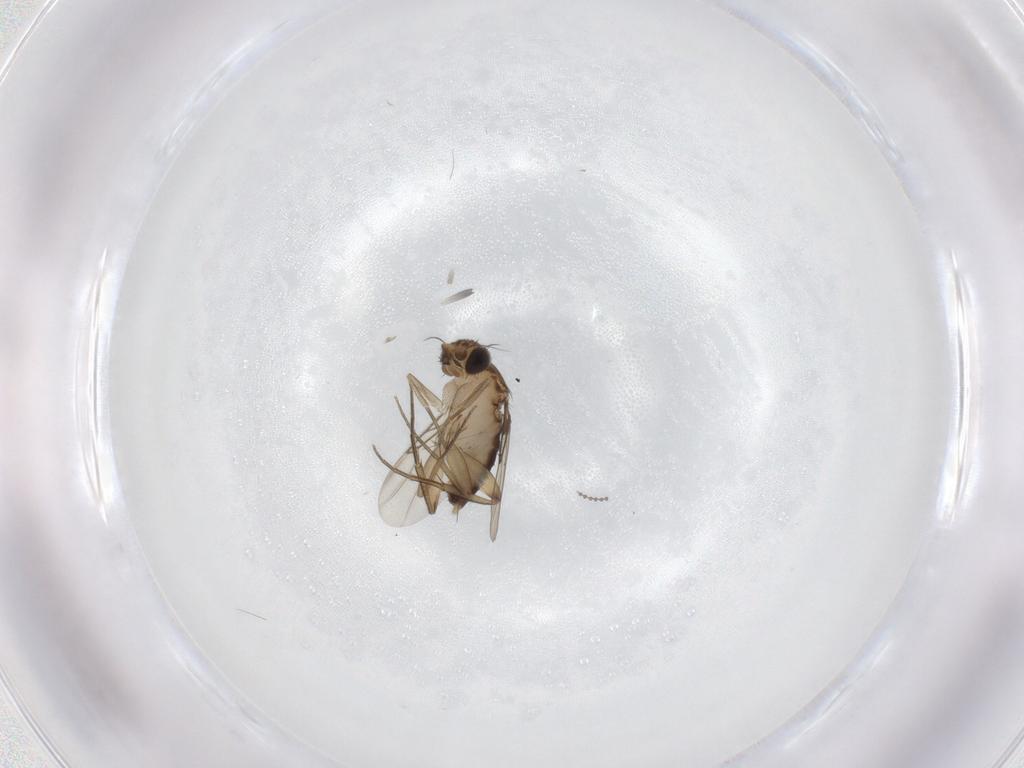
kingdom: Animalia
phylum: Arthropoda
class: Insecta
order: Diptera
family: Phoridae
